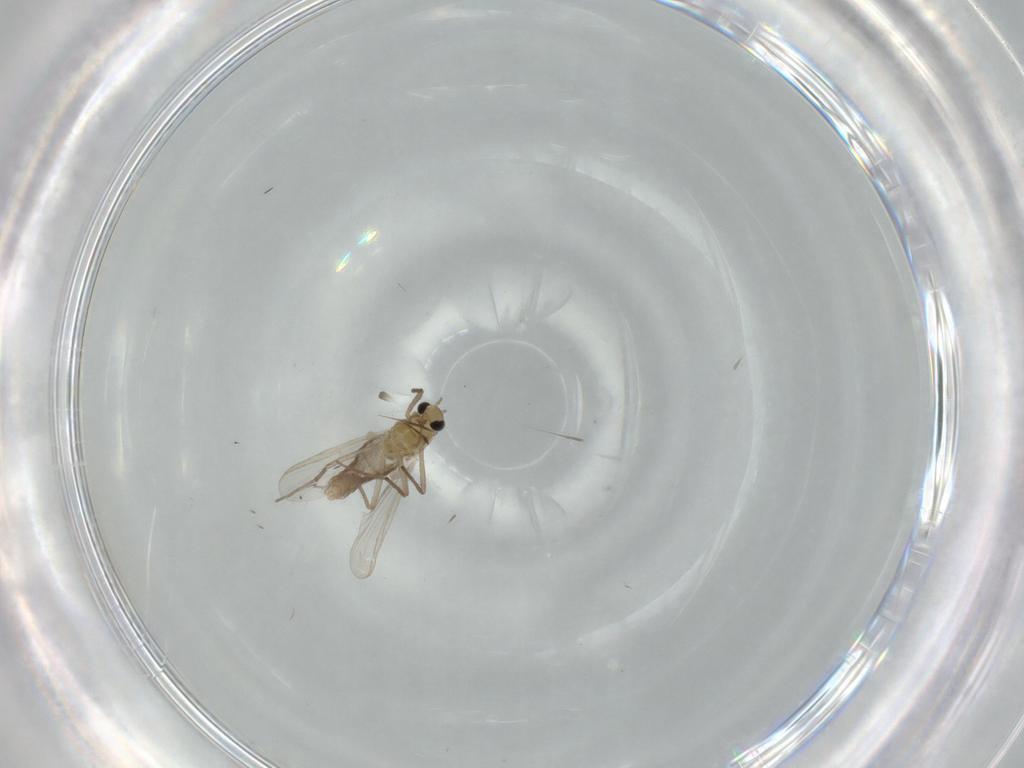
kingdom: Animalia
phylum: Arthropoda
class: Insecta
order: Diptera
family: Chironomidae
